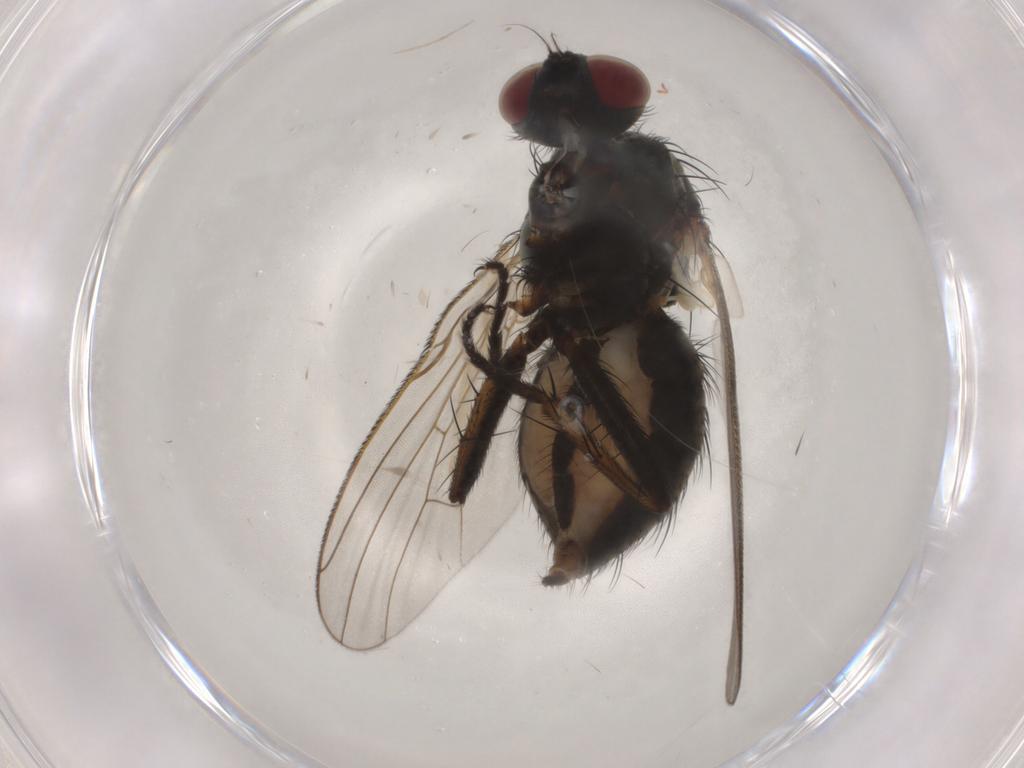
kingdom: Animalia
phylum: Arthropoda
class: Insecta
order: Diptera
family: Muscidae
